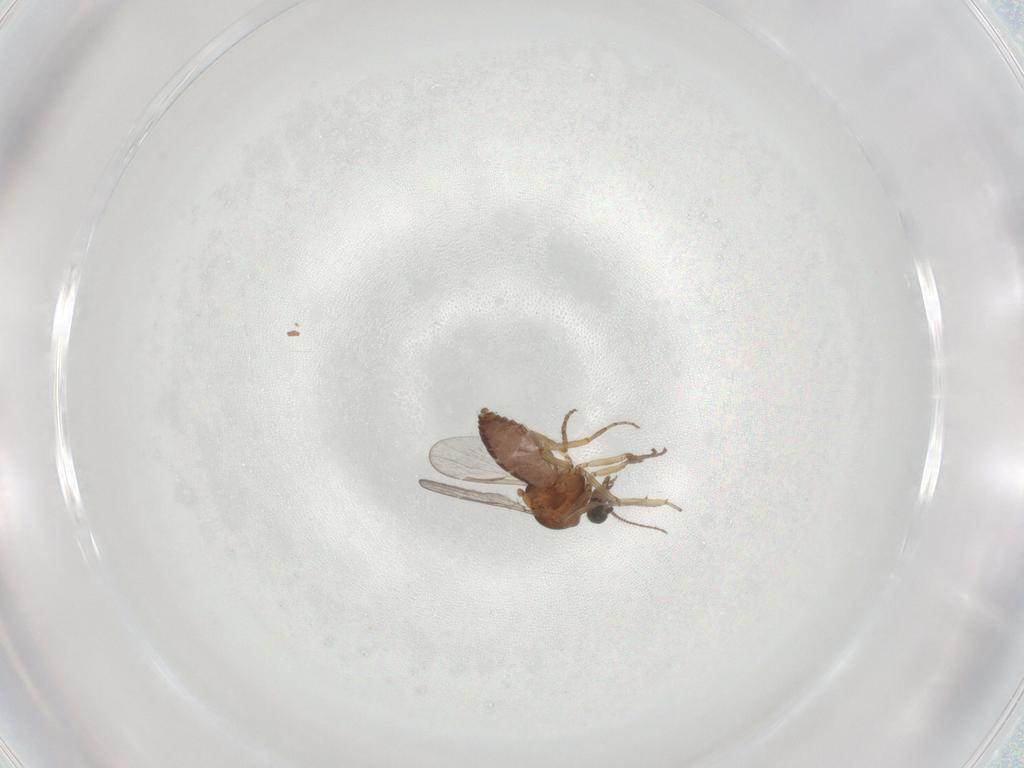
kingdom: Animalia
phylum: Arthropoda
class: Insecta
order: Diptera
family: Ceratopogonidae
